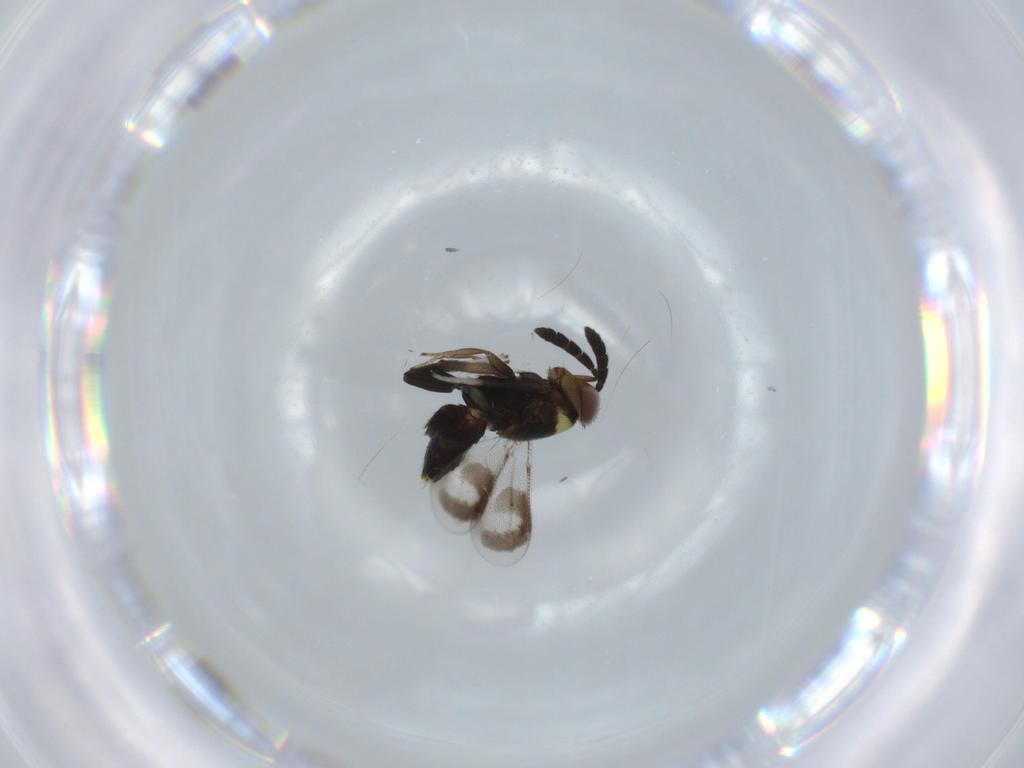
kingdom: Animalia
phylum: Arthropoda
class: Insecta
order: Hymenoptera
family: Aphelinidae
